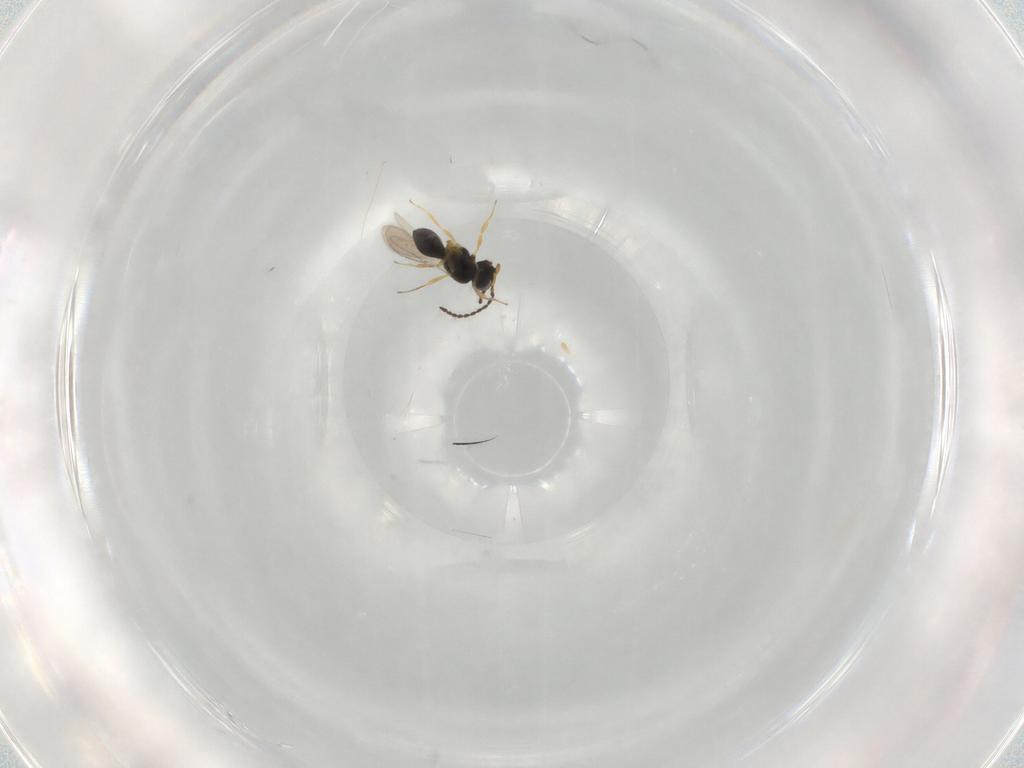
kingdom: Animalia
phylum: Arthropoda
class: Insecta
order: Hymenoptera
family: Scelionidae
